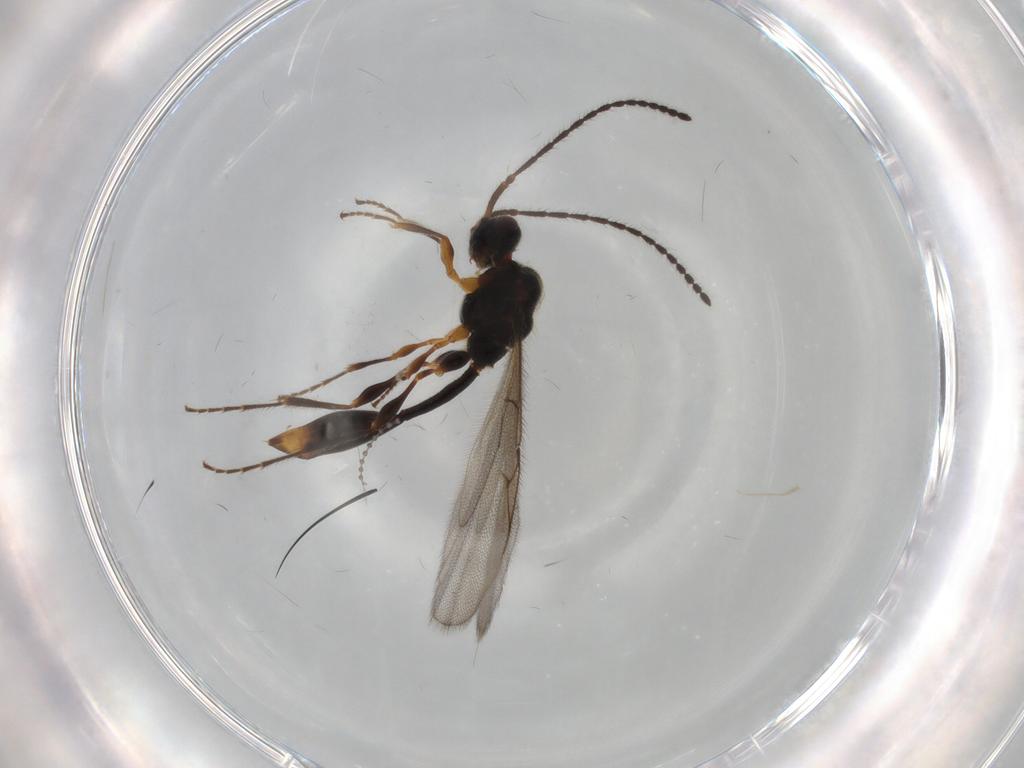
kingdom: Animalia
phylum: Arthropoda
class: Insecta
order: Hymenoptera
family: Diapriidae
